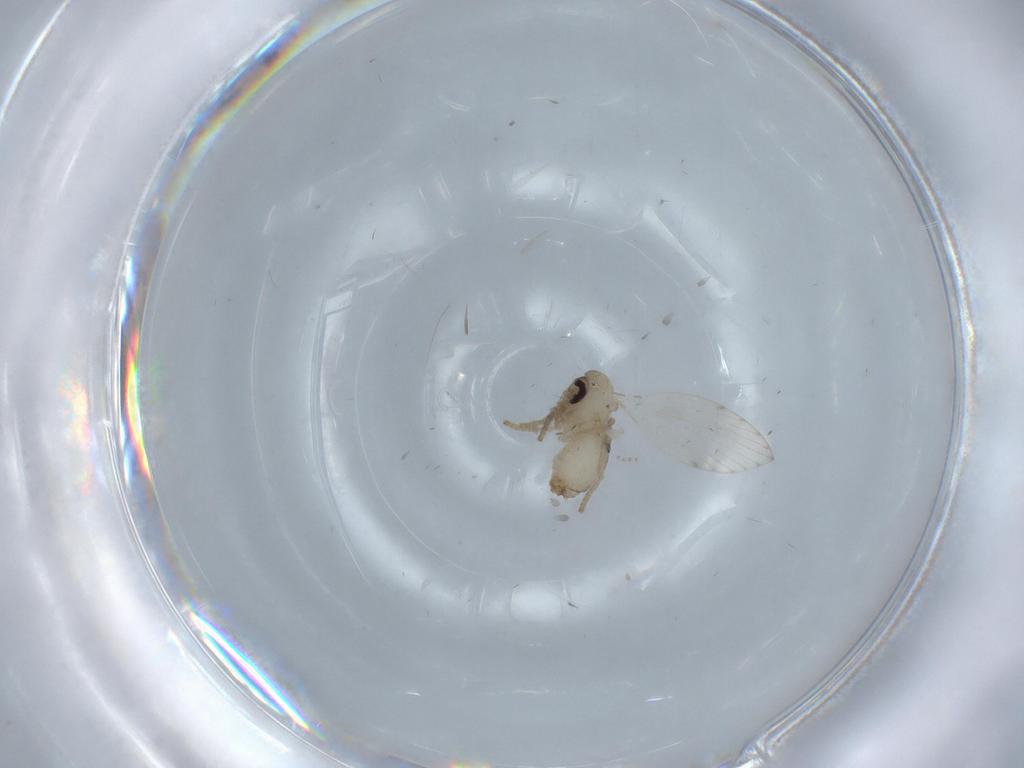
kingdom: Animalia
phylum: Arthropoda
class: Insecta
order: Diptera
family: Psychodidae
